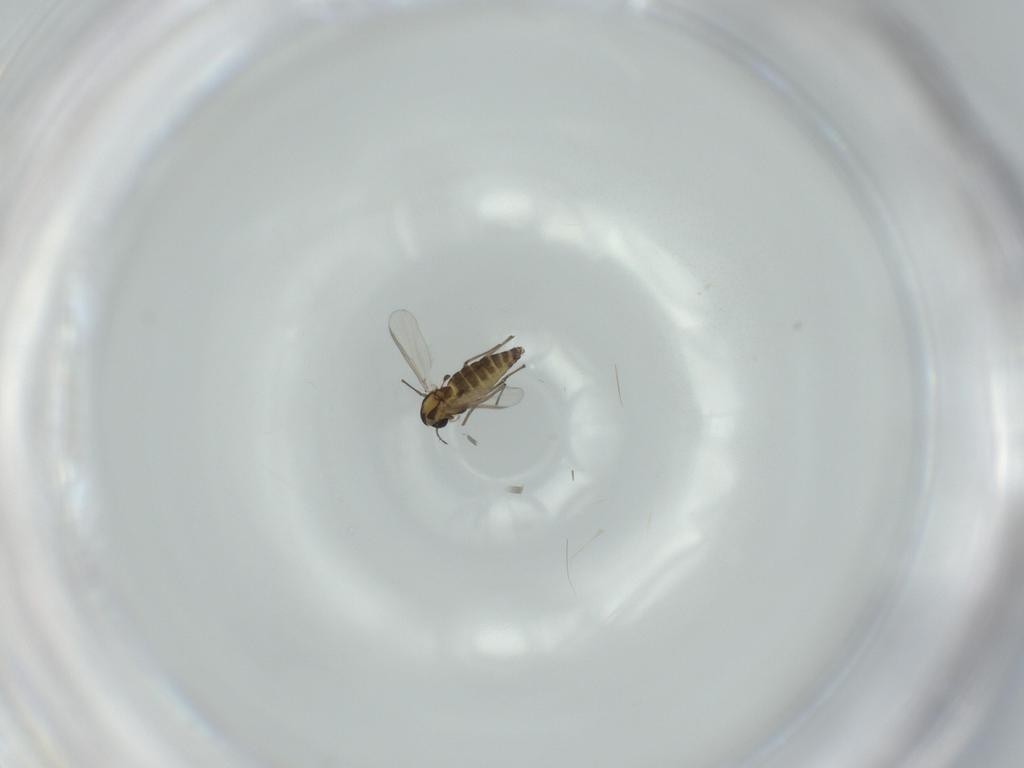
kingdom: Animalia
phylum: Arthropoda
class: Insecta
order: Diptera
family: Chironomidae
